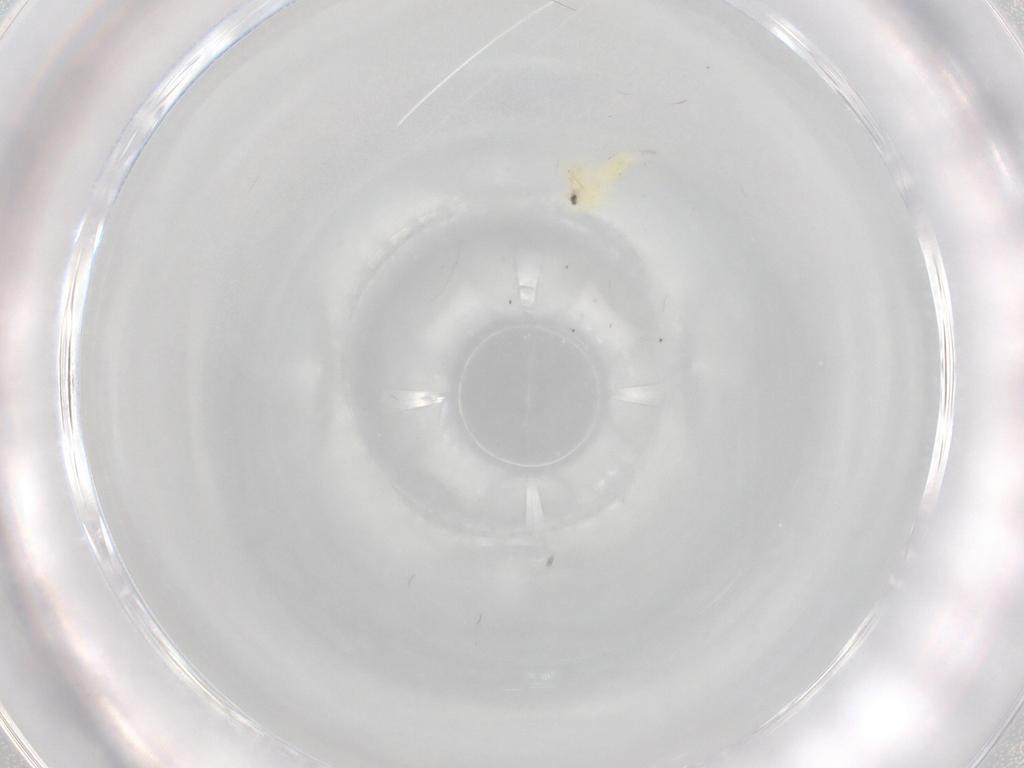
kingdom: Animalia
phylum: Arthropoda
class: Insecta
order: Hemiptera
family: Aleyrodidae
